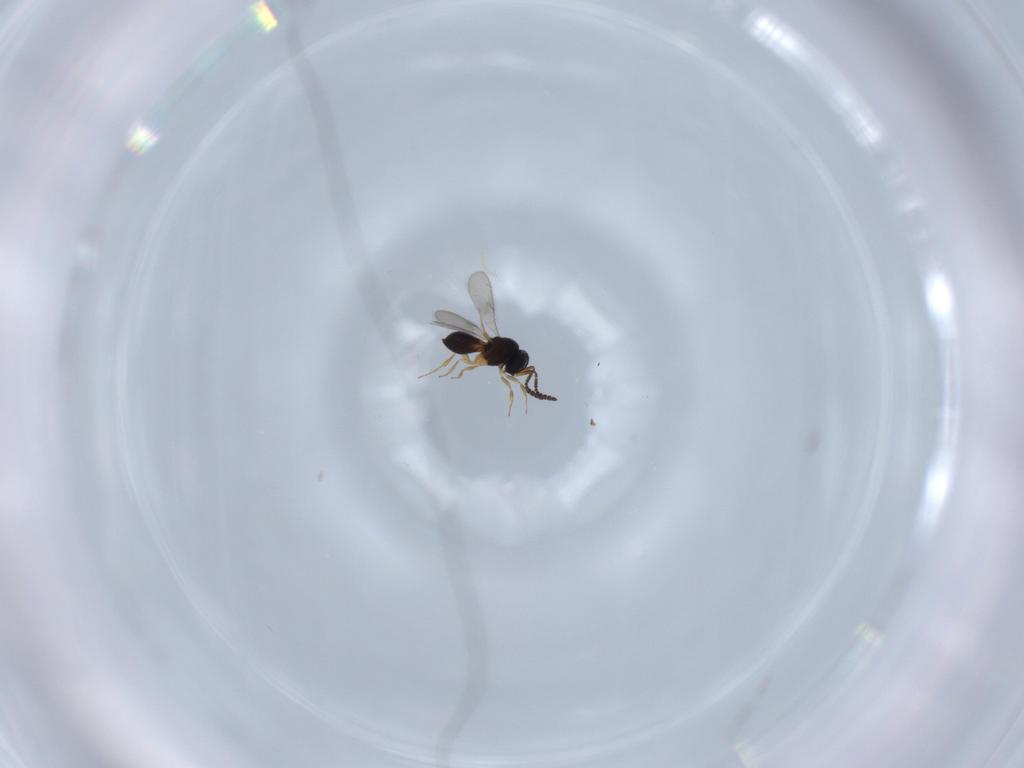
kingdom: Animalia
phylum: Arthropoda
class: Insecta
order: Hymenoptera
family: Scelionidae
